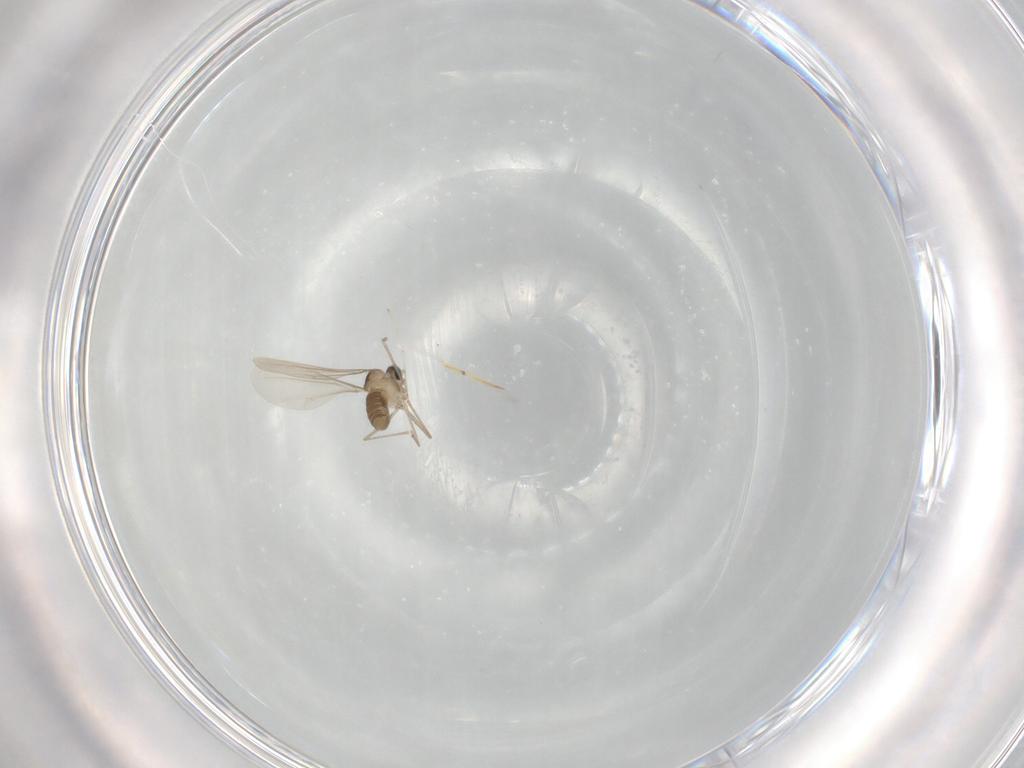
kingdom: Animalia
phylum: Arthropoda
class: Insecta
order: Diptera
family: Cecidomyiidae
